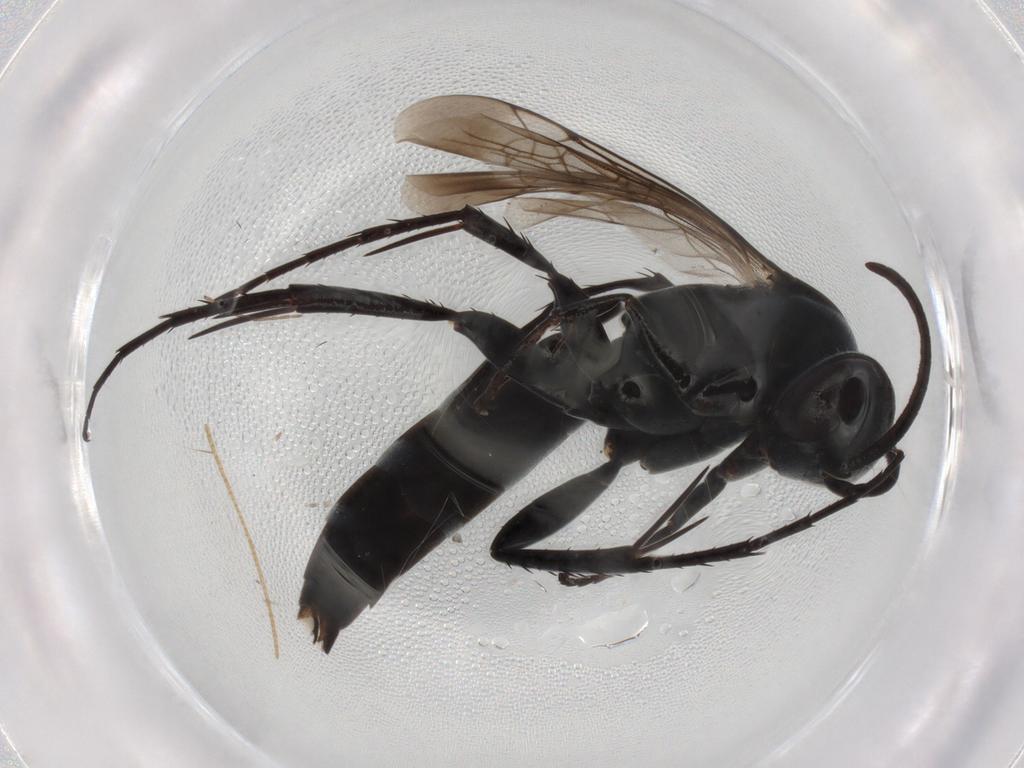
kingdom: Animalia
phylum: Arthropoda
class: Insecta
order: Hymenoptera
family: Pompilidae
